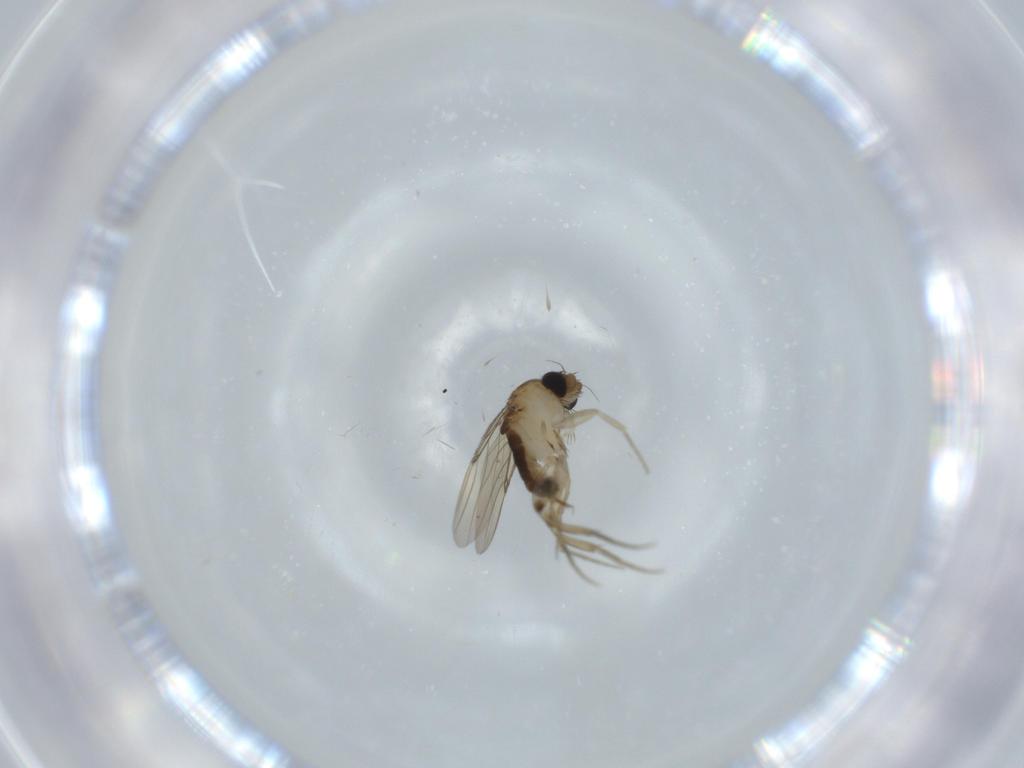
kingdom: Animalia
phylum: Arthropoda
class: Insecta
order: Diptera
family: Phoridae
